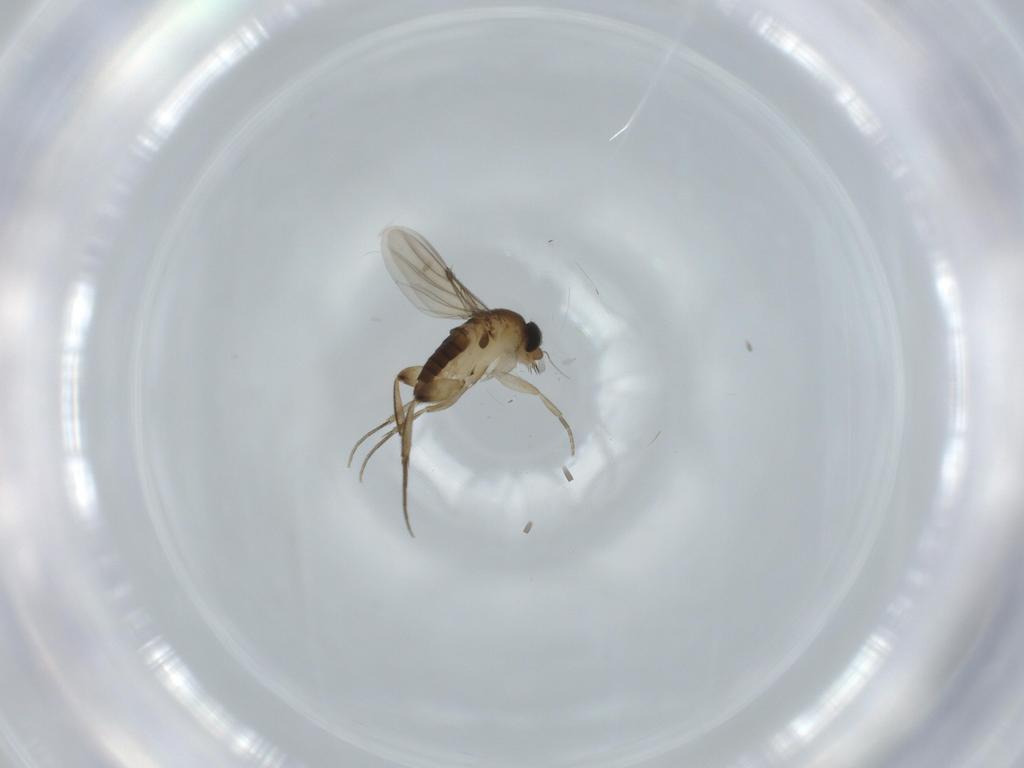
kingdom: Animalia
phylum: Arthropoda
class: Insecta
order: Diptera
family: Phoridae
